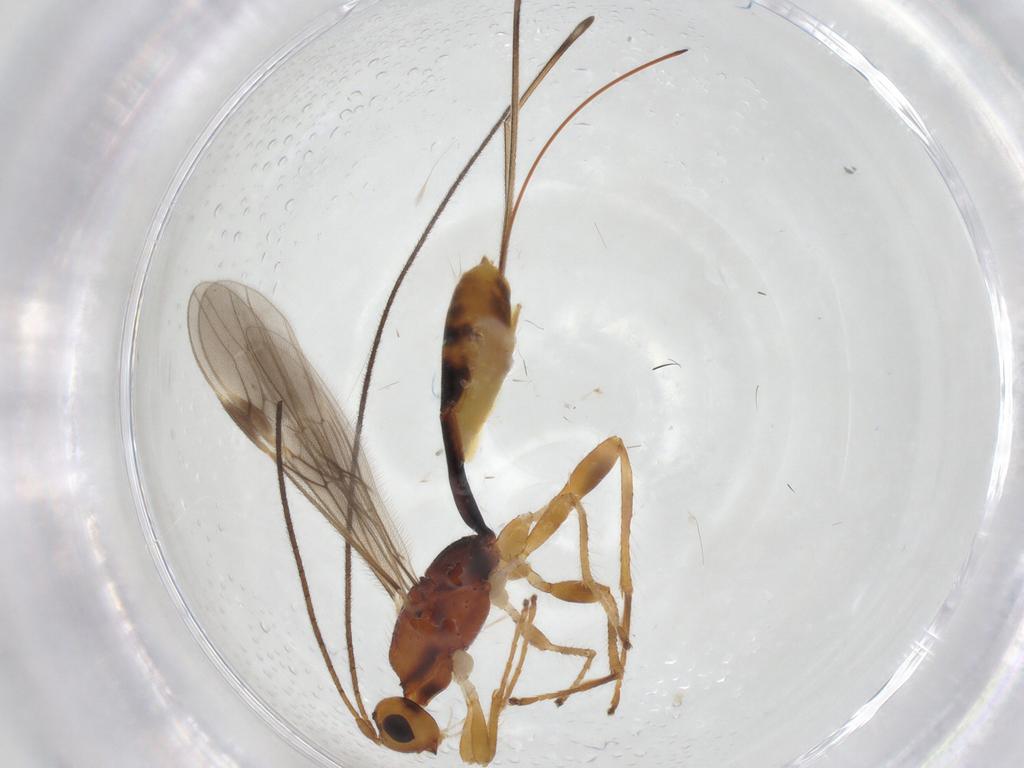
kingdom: Animalia
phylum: Arthropoda
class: Insecta
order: Hymenoptera
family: Braconidae
